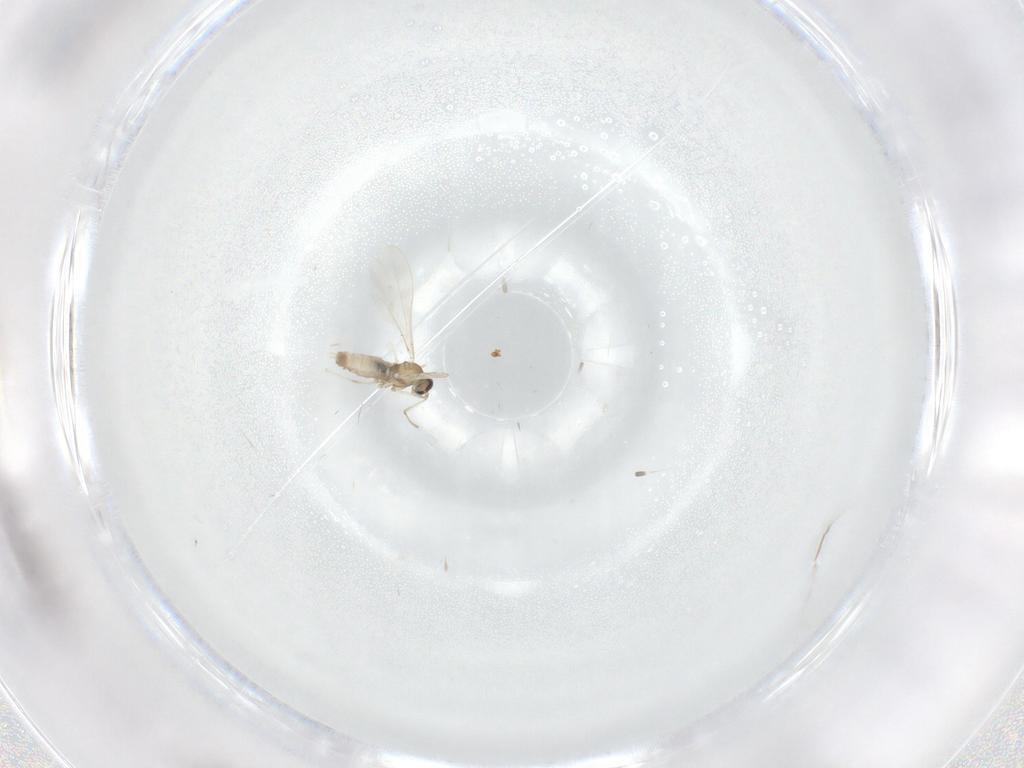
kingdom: Animalia
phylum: Arthropoda
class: Insecta
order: Diptera
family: Cecidomyiidae
